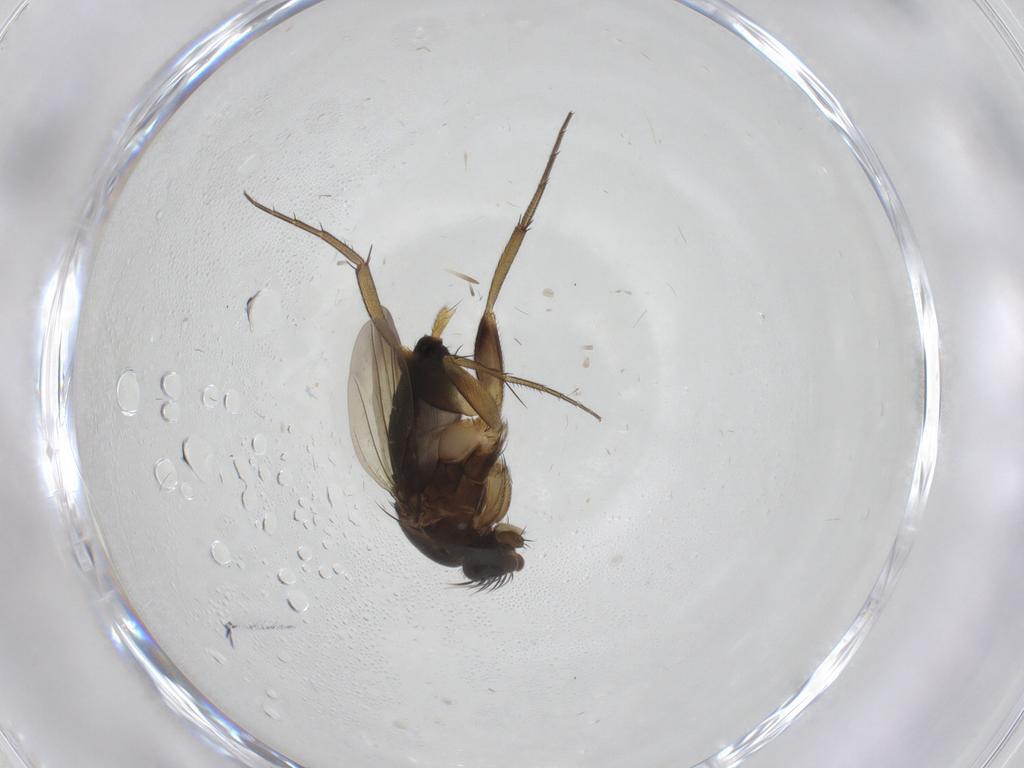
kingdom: Animalia
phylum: Arthropoda
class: Insecta
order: Diptera
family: Phoridae
